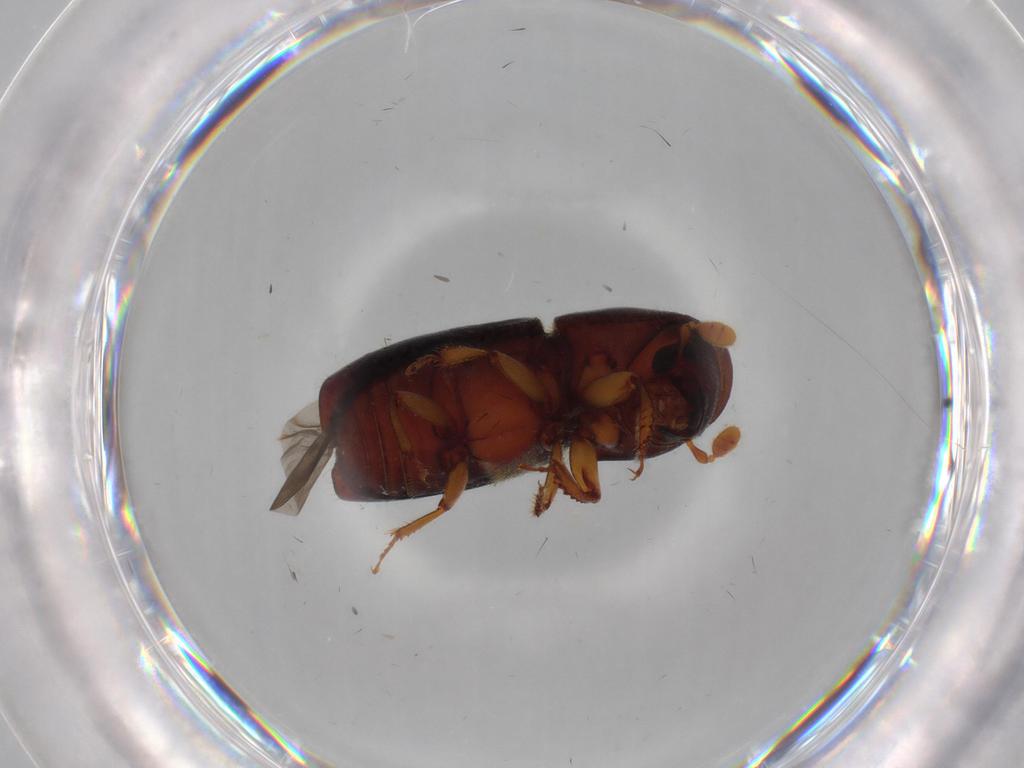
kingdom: Animalia
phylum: Arthropoda
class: Insecta
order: Coleoptera
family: Curculionidae
